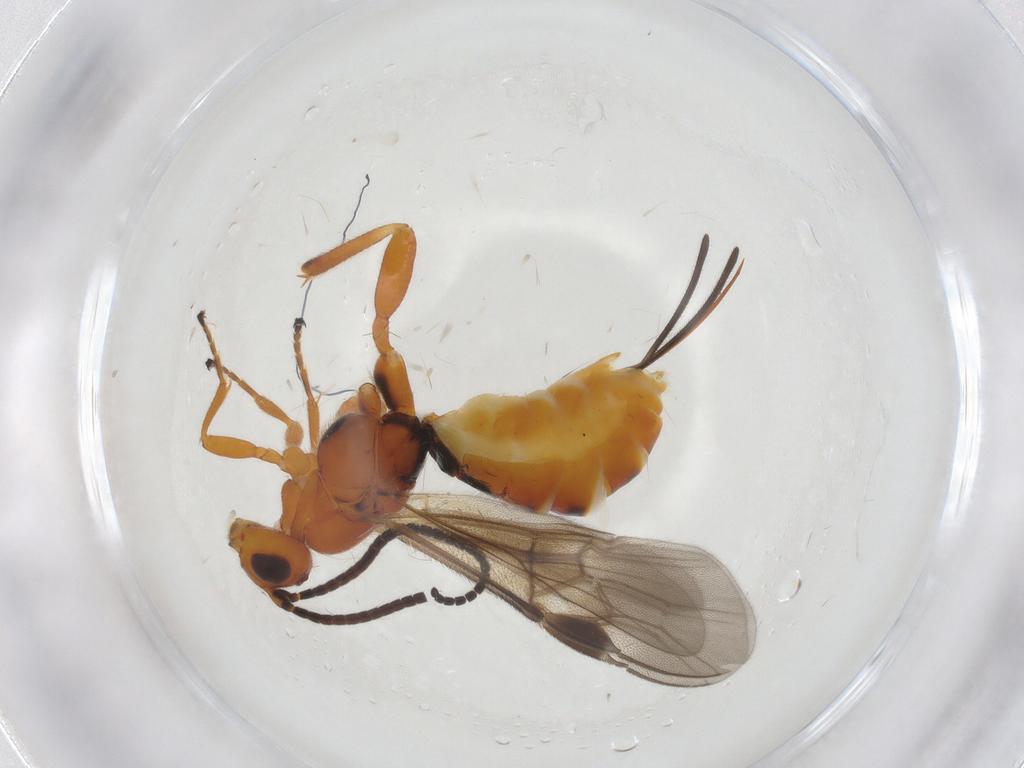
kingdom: Animalia
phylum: Arthropoda
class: Insecta
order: Hymenoptera
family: Braconidae
